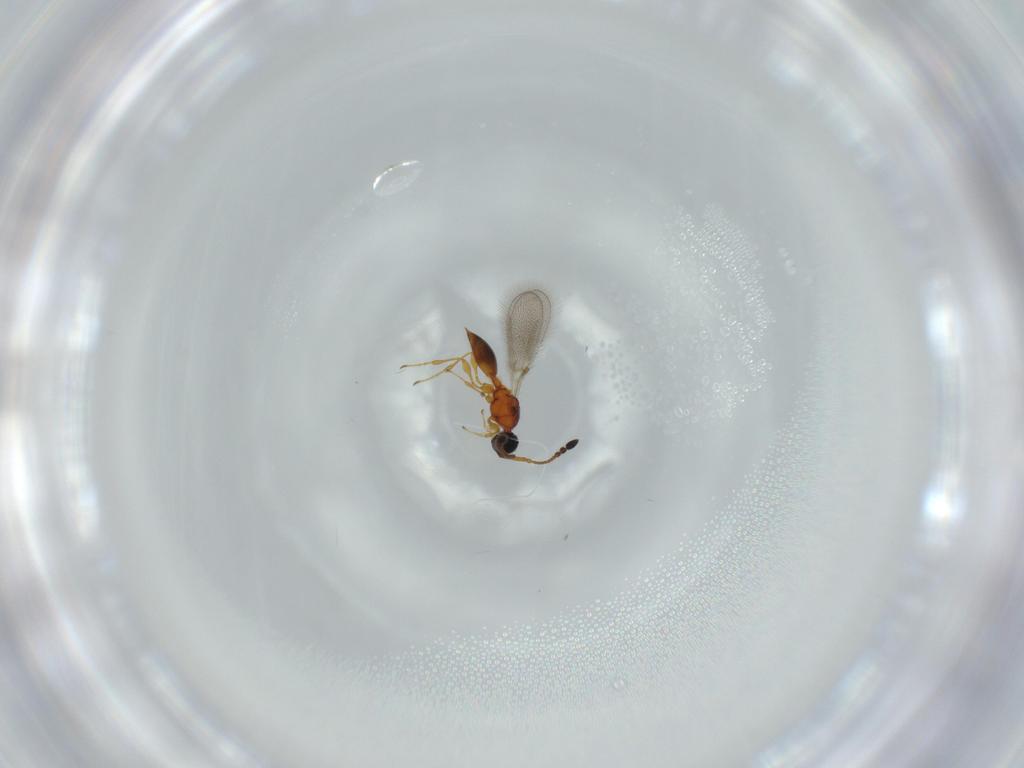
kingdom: Animalia
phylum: Arthropoda
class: Insecta
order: Hymenoptera
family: Diapriidae
